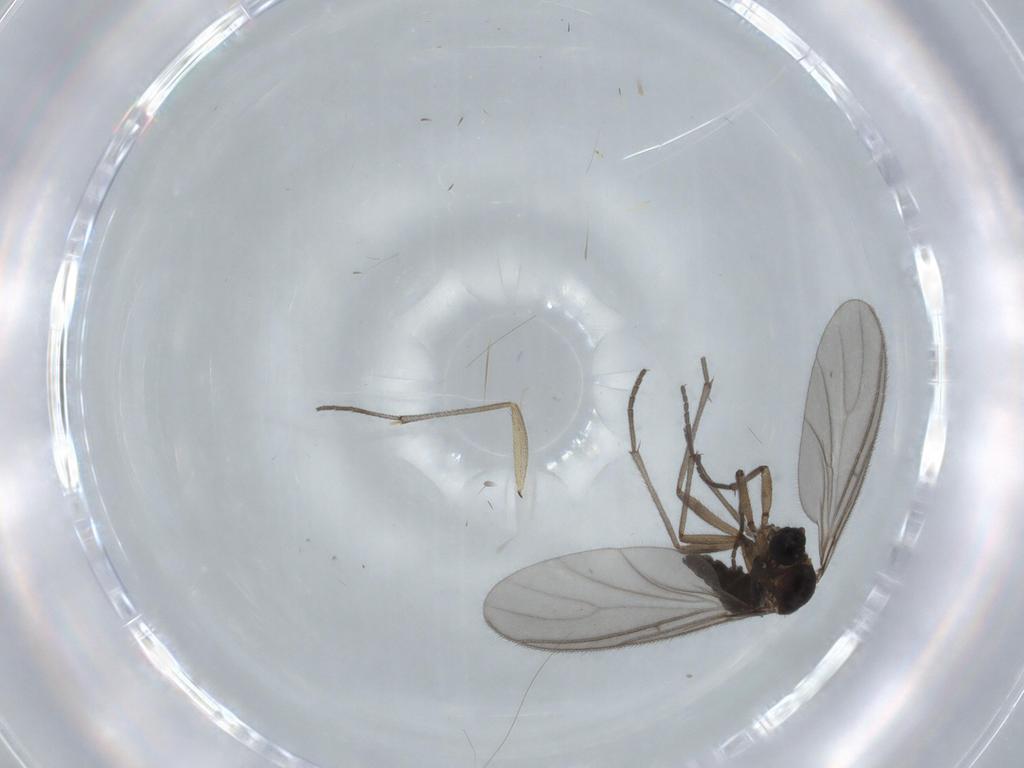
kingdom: Animalia
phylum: Arthropoda
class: Insecta
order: Diptera
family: Sciaridae
